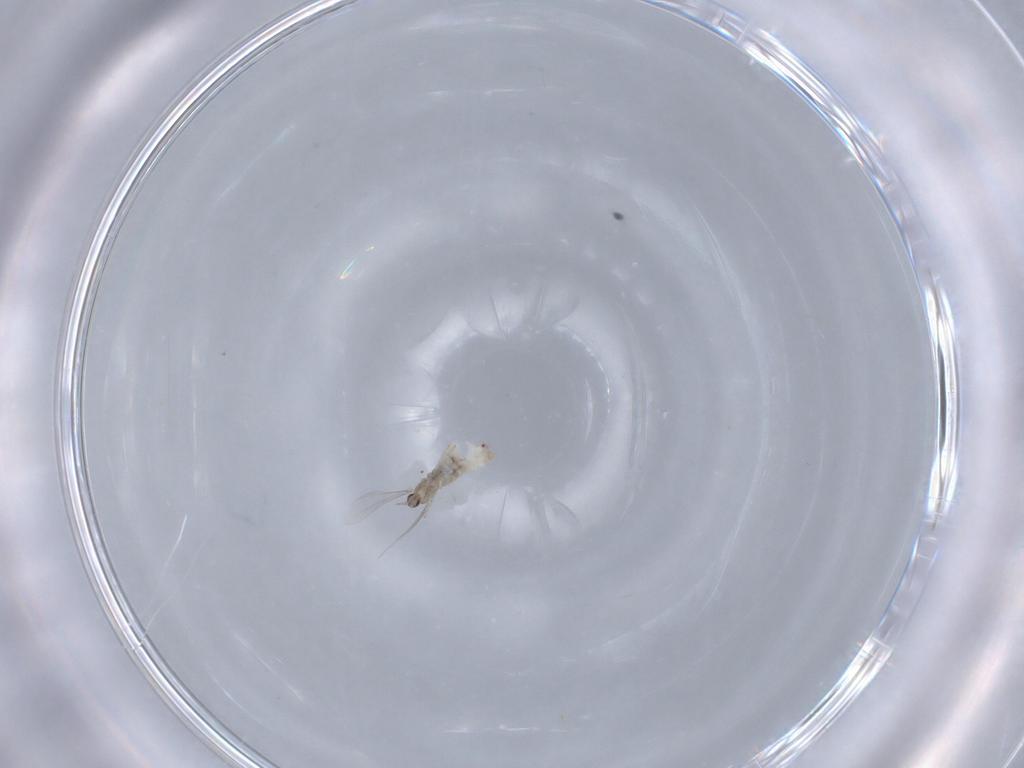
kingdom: Animalia
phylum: Arthropoda
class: Insecta
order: Diptera
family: Cecidomyiidae
